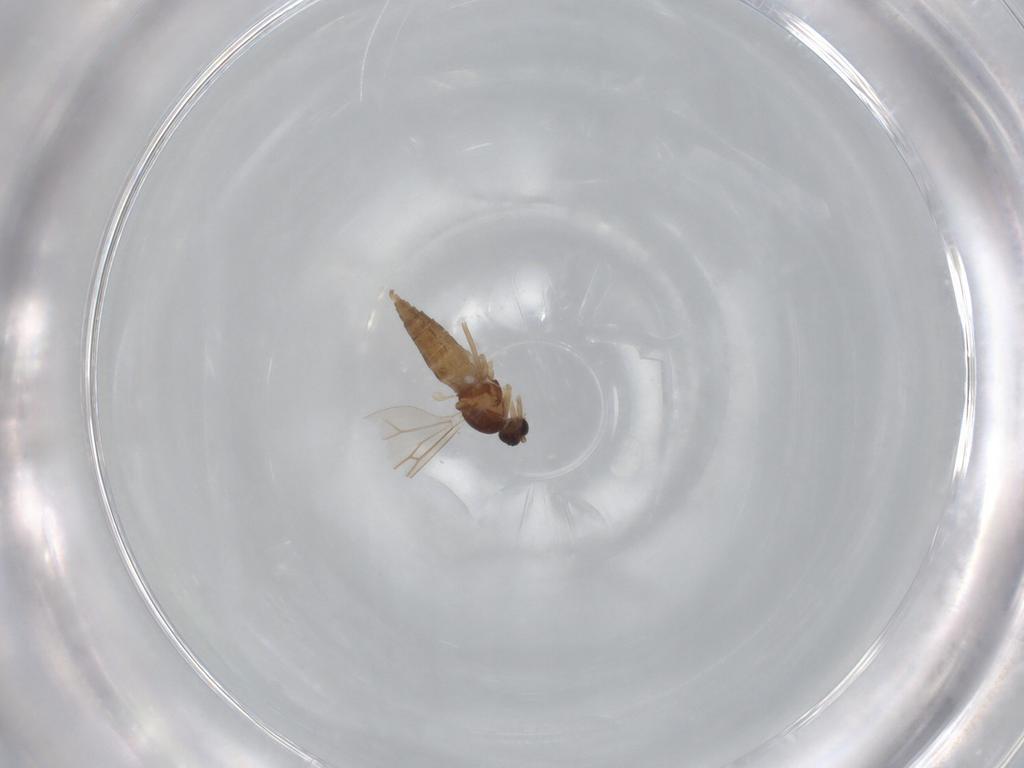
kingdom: Animalia
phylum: Arthropoda
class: Insecta
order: Diptera
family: Cecidomyiidae
